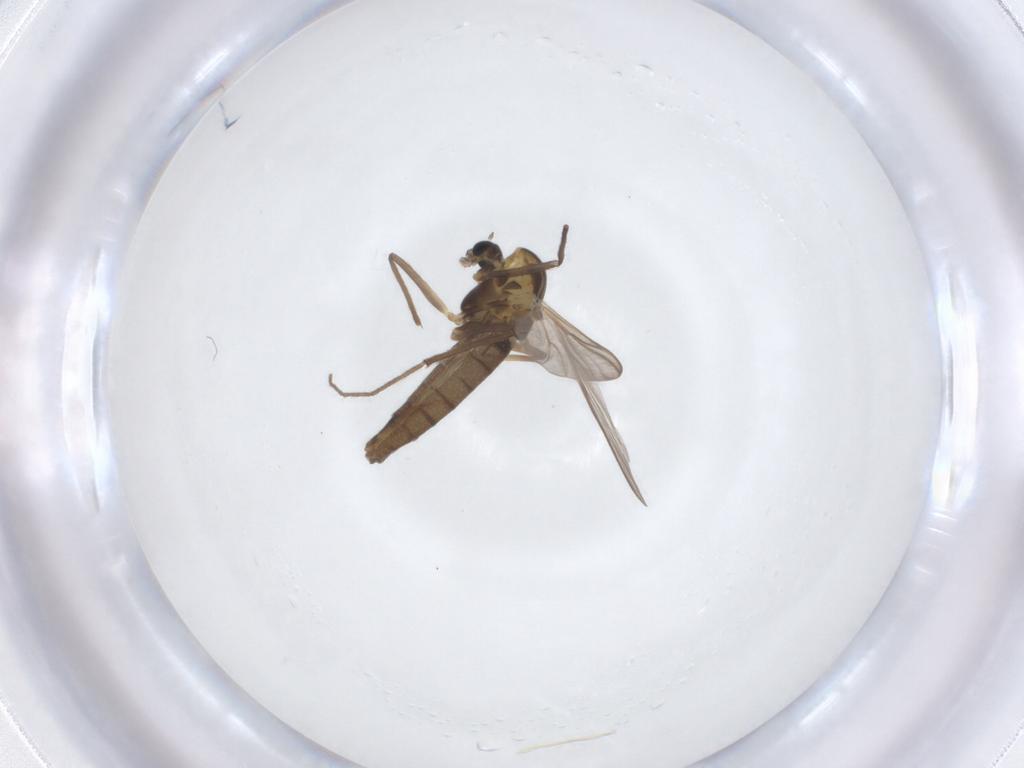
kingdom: Animalia
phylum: Arthropoda
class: Insecta
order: Diptera
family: Chironomidae
